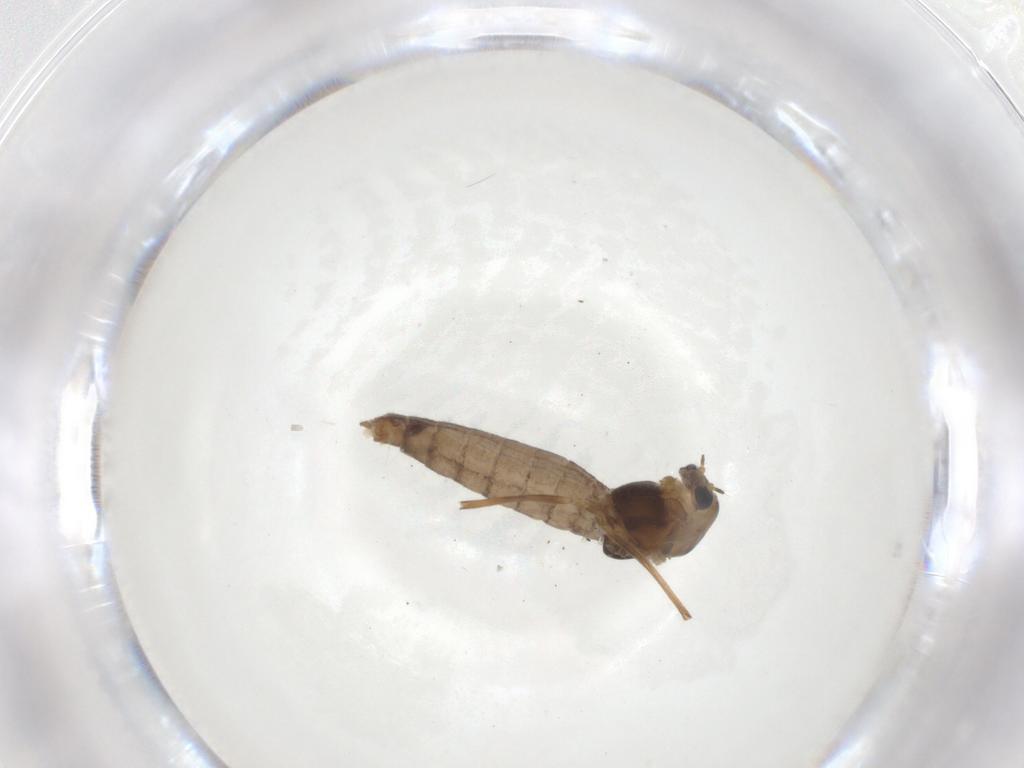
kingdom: Animalia
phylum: Arthropoda
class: Insecta
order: Diptera
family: Chironomidae
